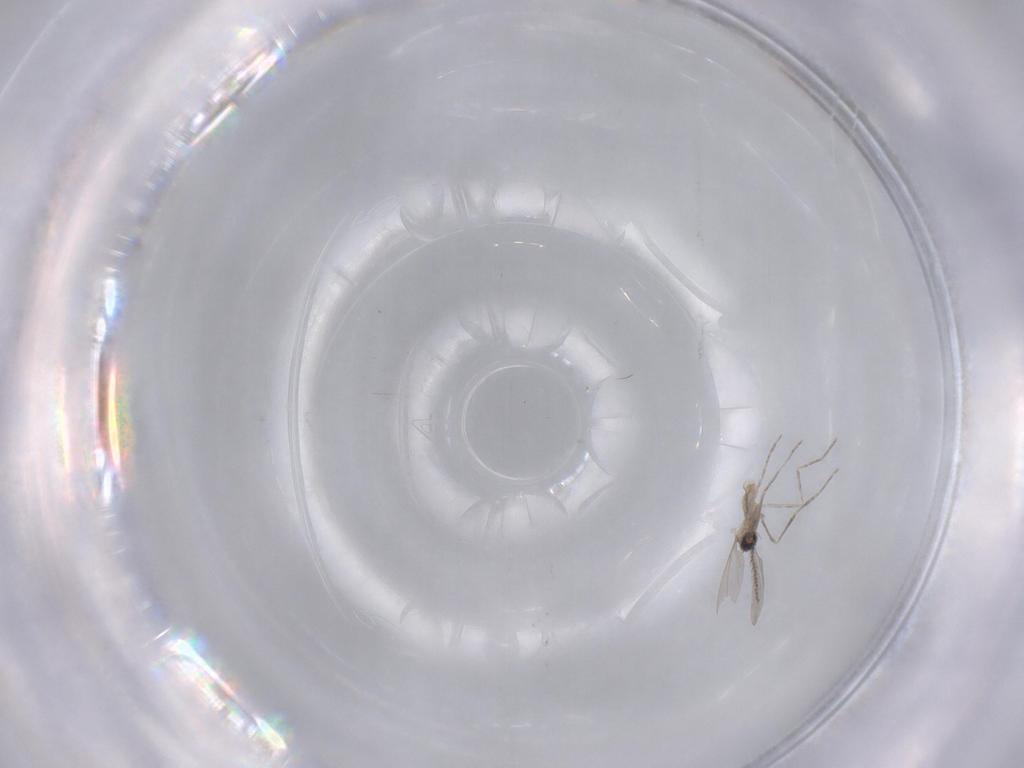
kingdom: Animalia
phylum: Arthropoda
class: Insecta
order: Diptera
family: Cecidomyiidae
